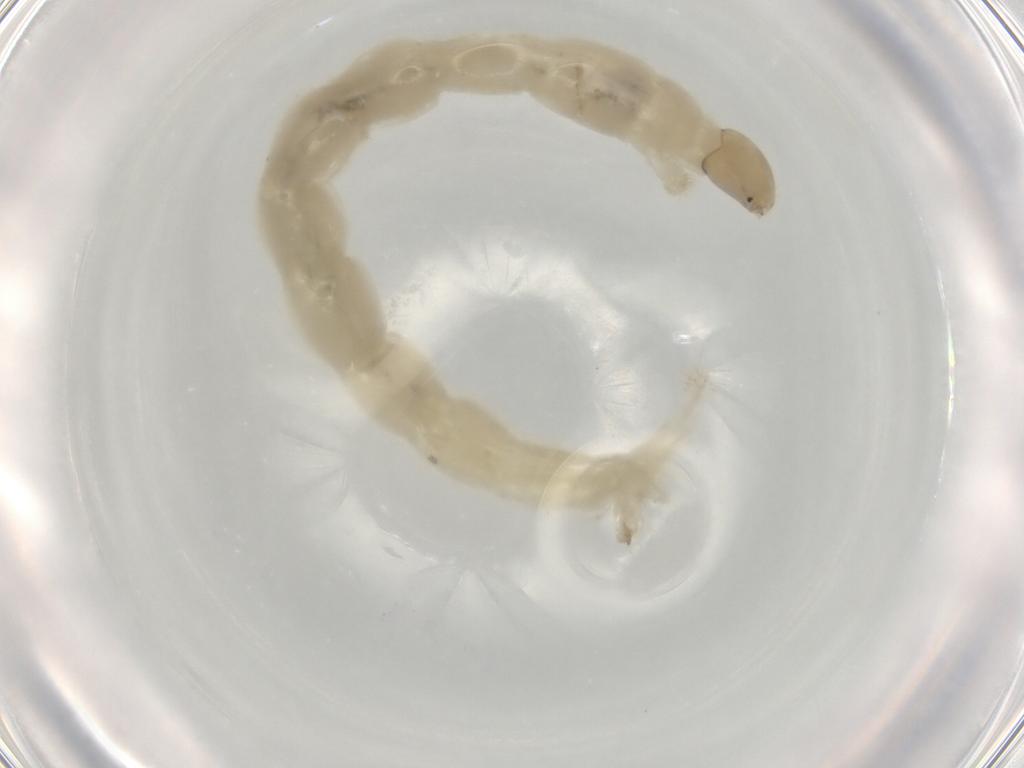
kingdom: Animalia
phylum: Arthropoda
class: Insecta
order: Diptera
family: Chironomidae
